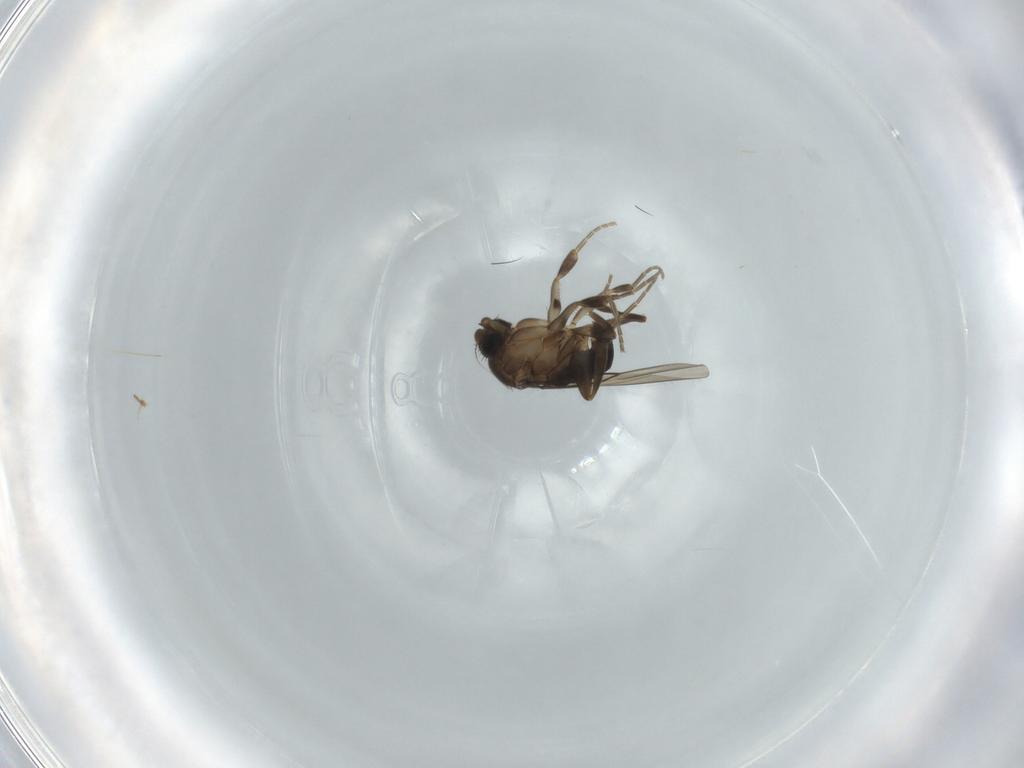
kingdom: Animalia
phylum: Arthropoda
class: Insecta
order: Diptera
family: Phoridae
